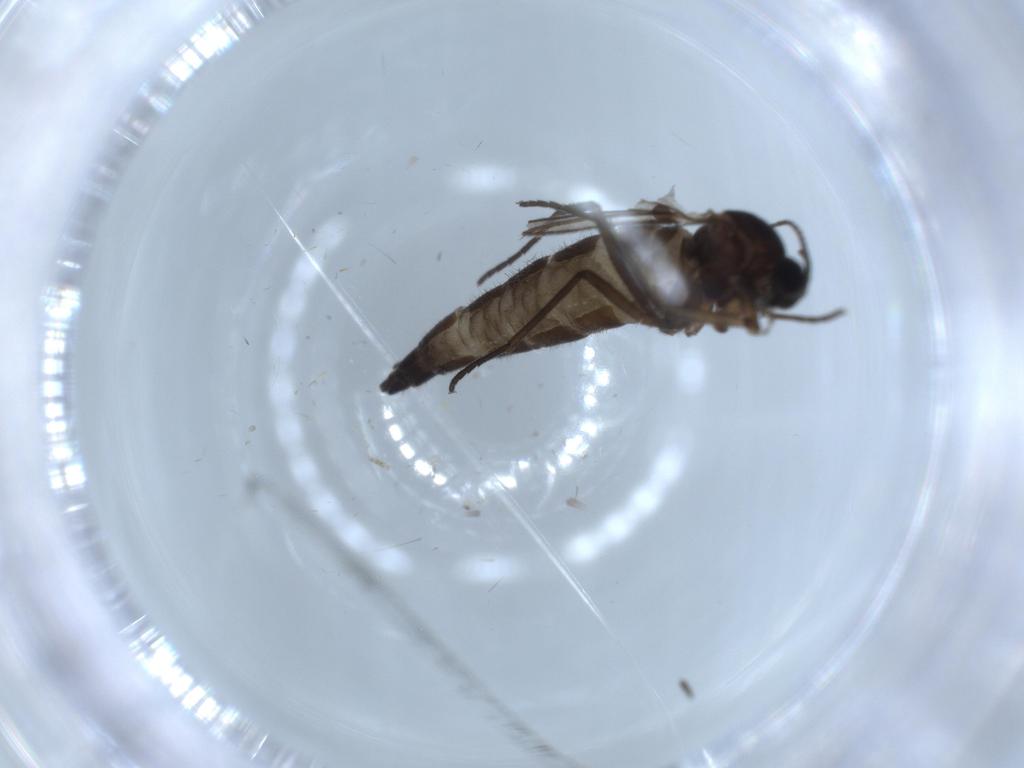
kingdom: Animalia
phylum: Arthropoda
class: Insecta
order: Diptera
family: Sciaridae
